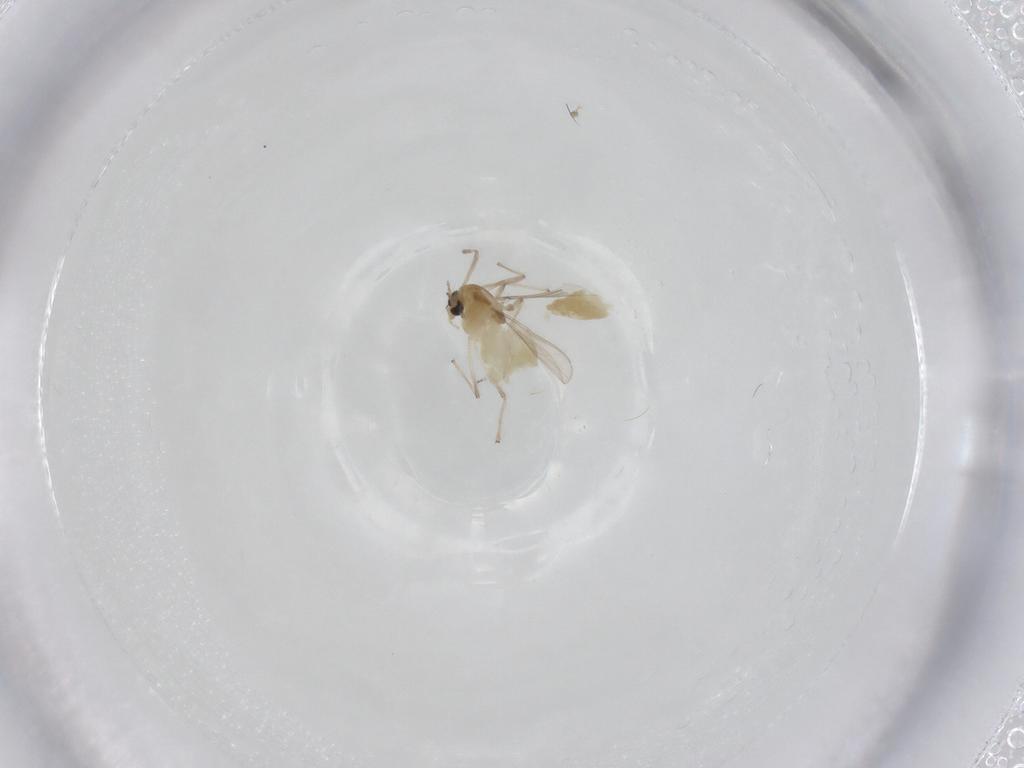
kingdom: Animalia
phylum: Arthropoda
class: Insecta
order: Diptera
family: Chironomidae
